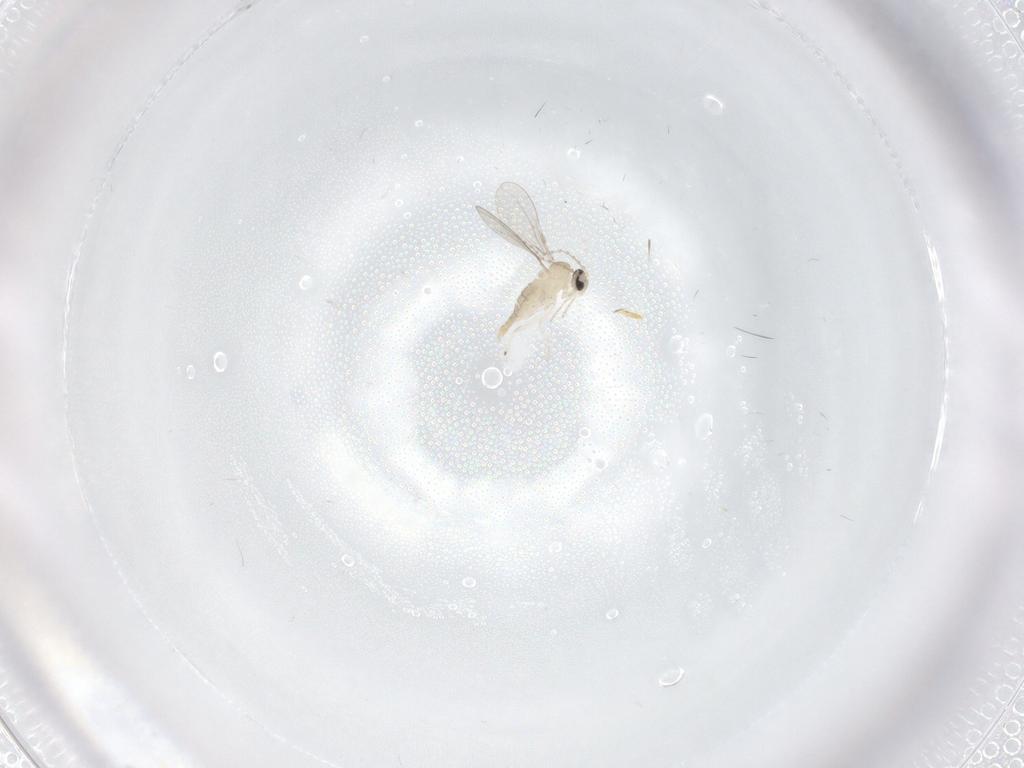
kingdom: Animalia
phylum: Arthropoda
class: Insecta
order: Diptera
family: Cecidomyiidae
